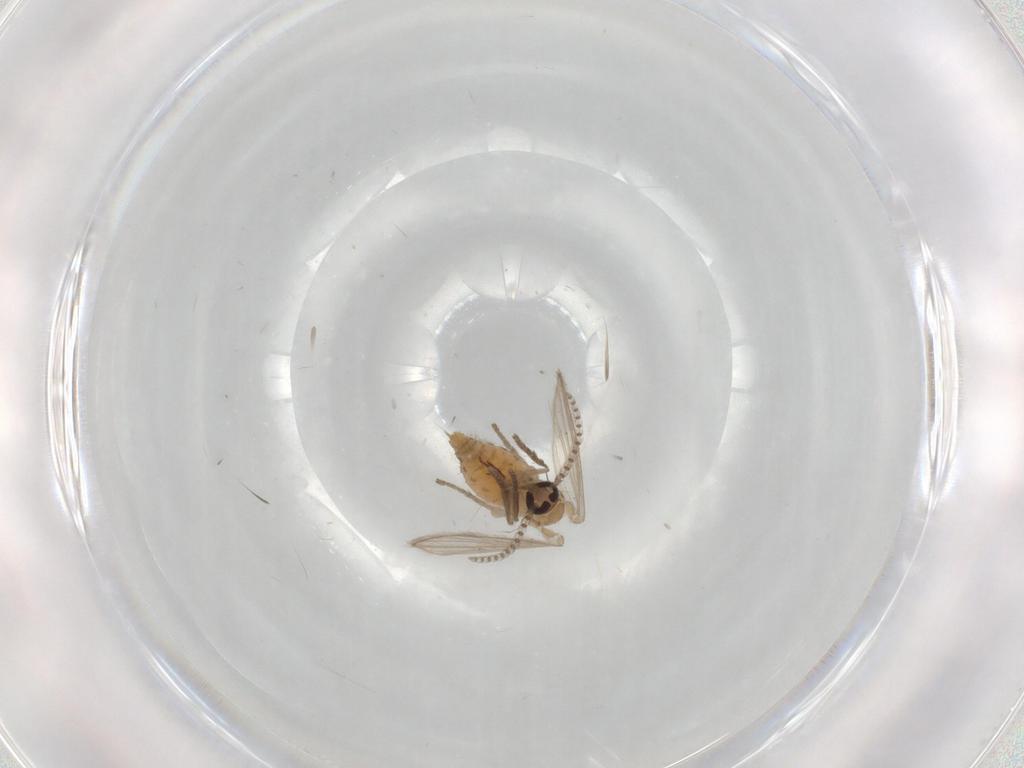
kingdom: Animalia
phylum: Arthropoda
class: Insecta
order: Diptera
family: Psychodidae
